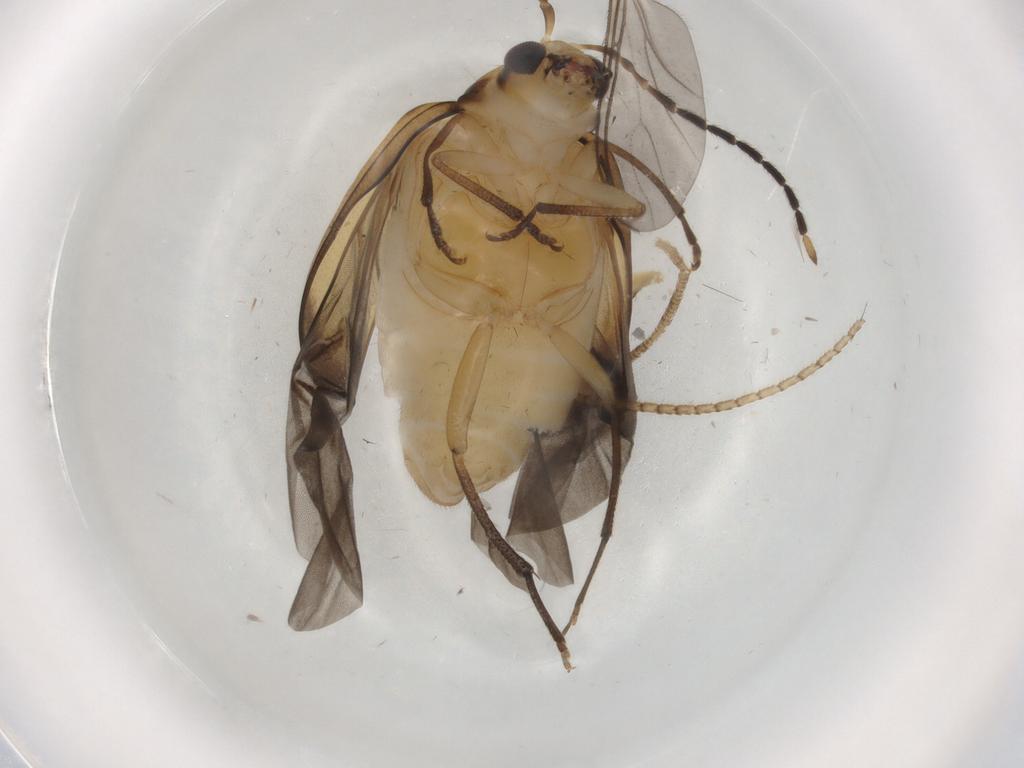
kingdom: Animalia
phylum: Arthropoda
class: Insecta
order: Coleoptera
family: Chrysomelidae
